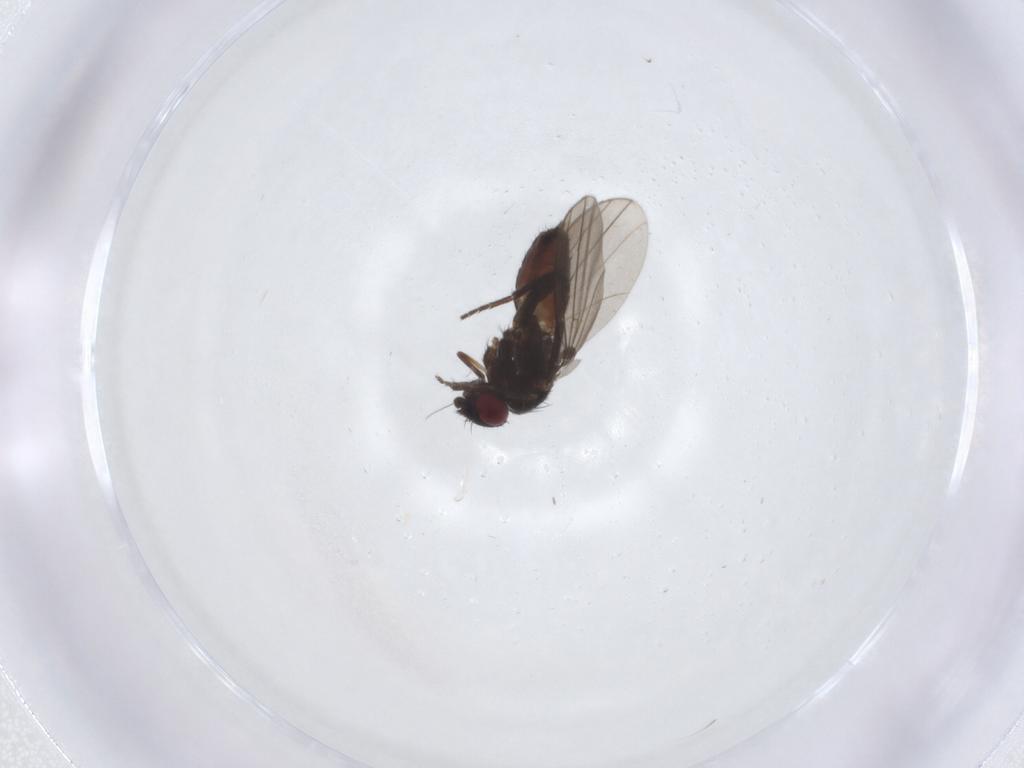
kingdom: Animalia
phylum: Arthropoda
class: Insecta
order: Diptera
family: Milichiidae
